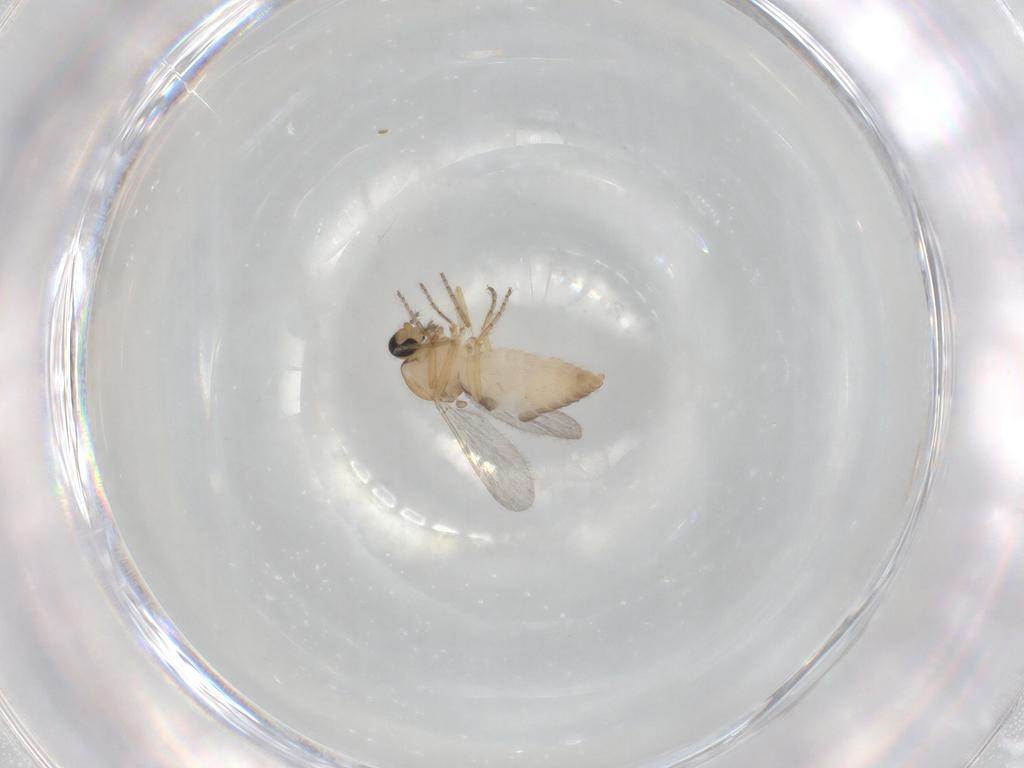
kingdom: Animalia
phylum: Arthropoda
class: Insecta
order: Diptera
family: Ceratopogonidae
